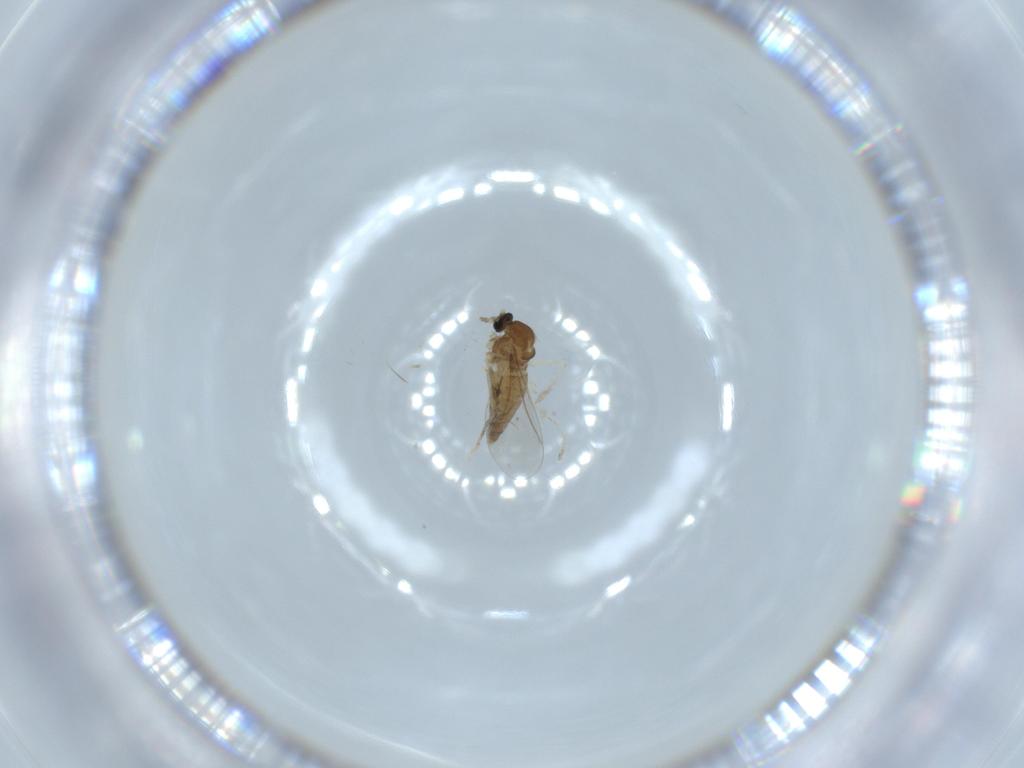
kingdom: Animalia
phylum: Arthropoda
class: Insecta
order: Diptera
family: Cecidomyiidae
